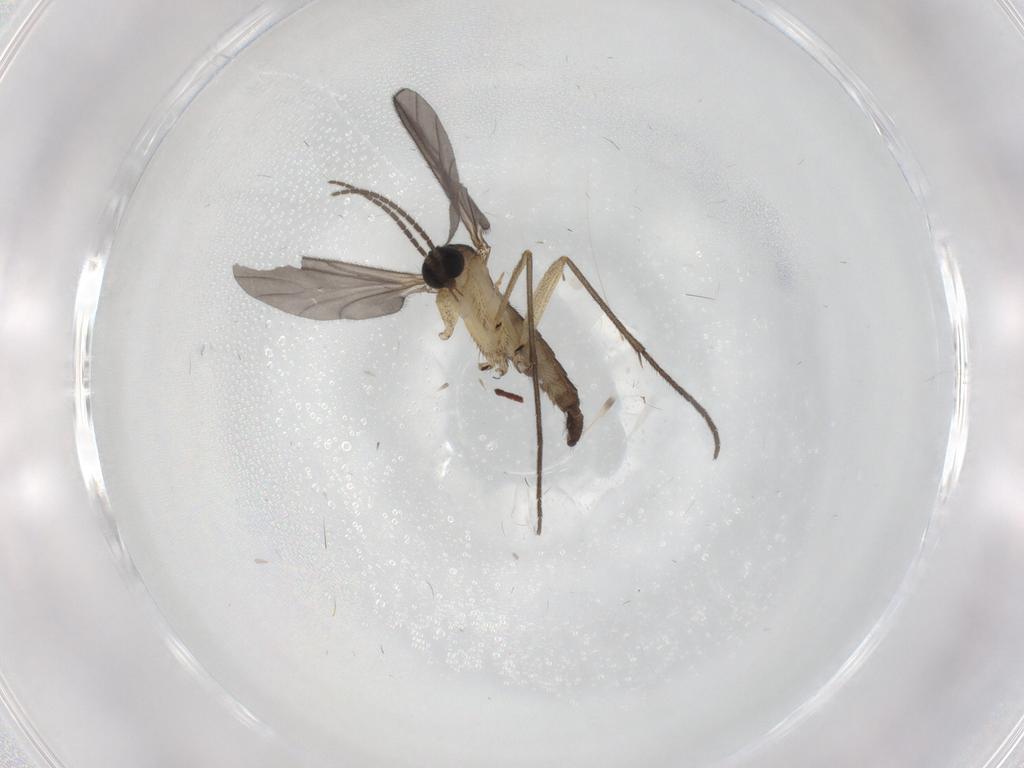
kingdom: Animalia
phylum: Arthropoda
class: Insecta
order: Diptera
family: Sciaridae
